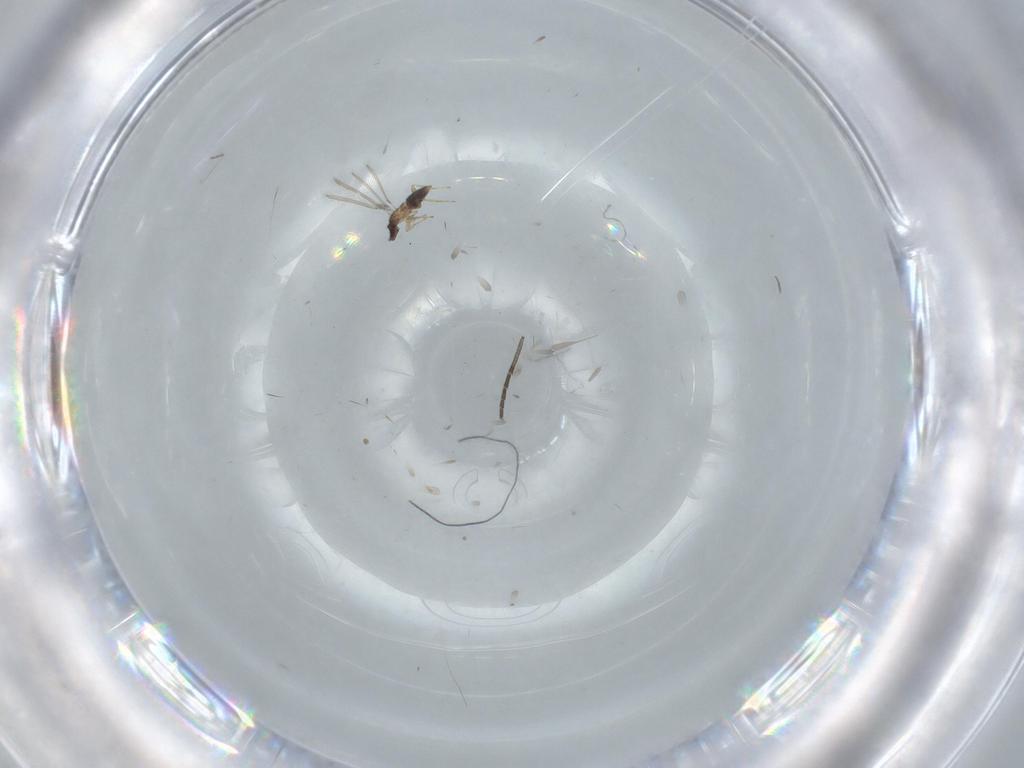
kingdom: Animalia
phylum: Arthropoda
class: Insecta
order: Hymenoptera
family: Mymaridae
